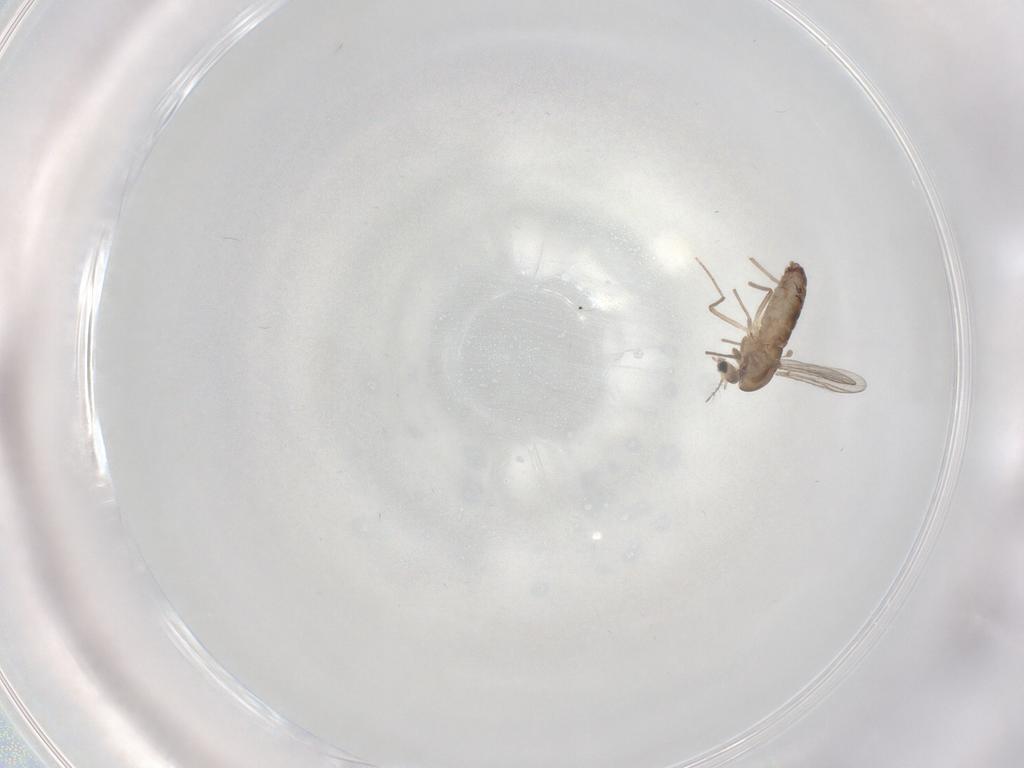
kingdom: Animalia
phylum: Arthropoda
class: Insecta
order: Diptera
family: Chironomidae
